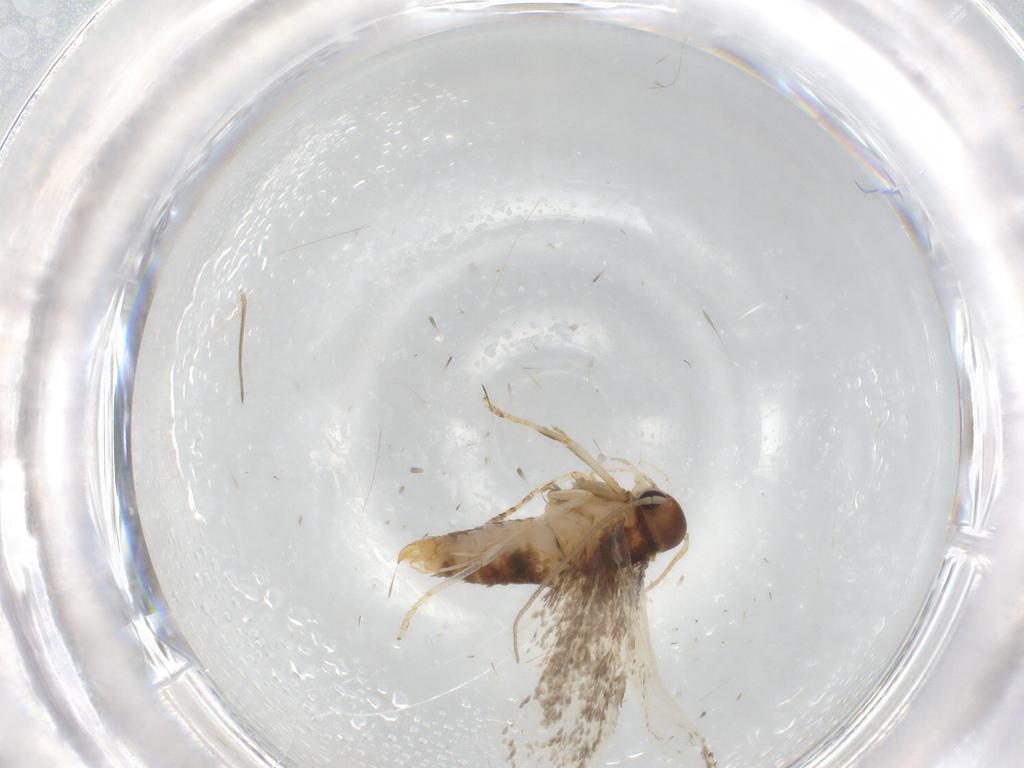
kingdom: Animalia
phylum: Arthropoda
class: Insecta
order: Lepidoptera
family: Oecophoridae
